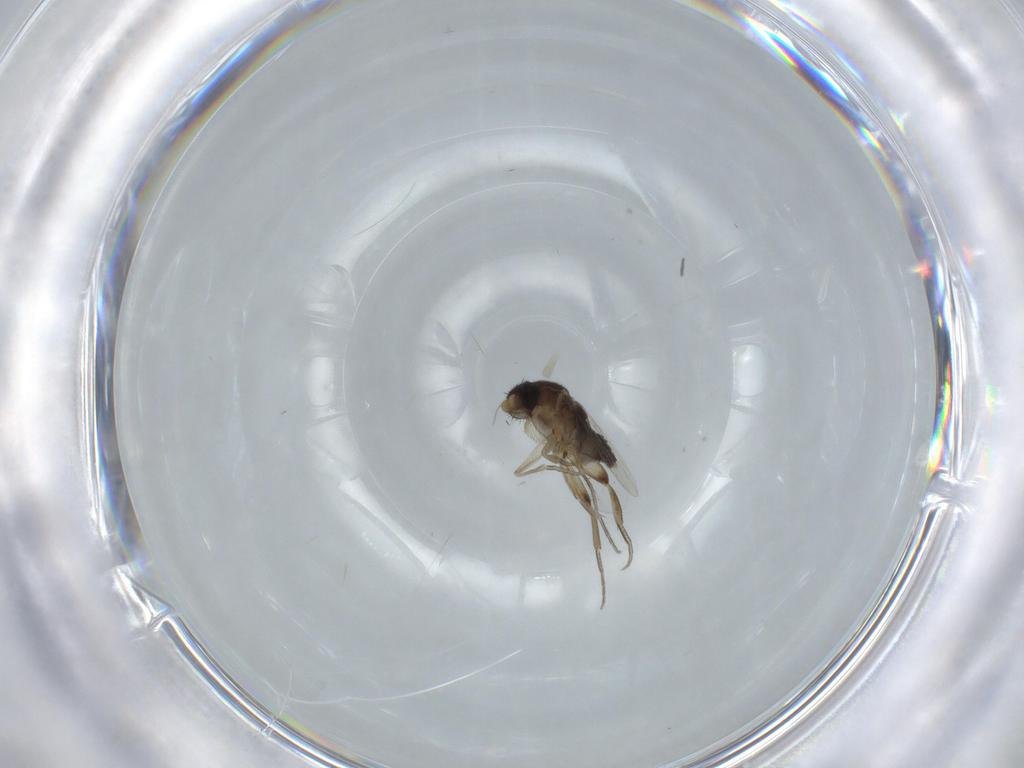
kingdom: Animalia
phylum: Arthropoda
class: Insecta
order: Diptera
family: Phoridae
